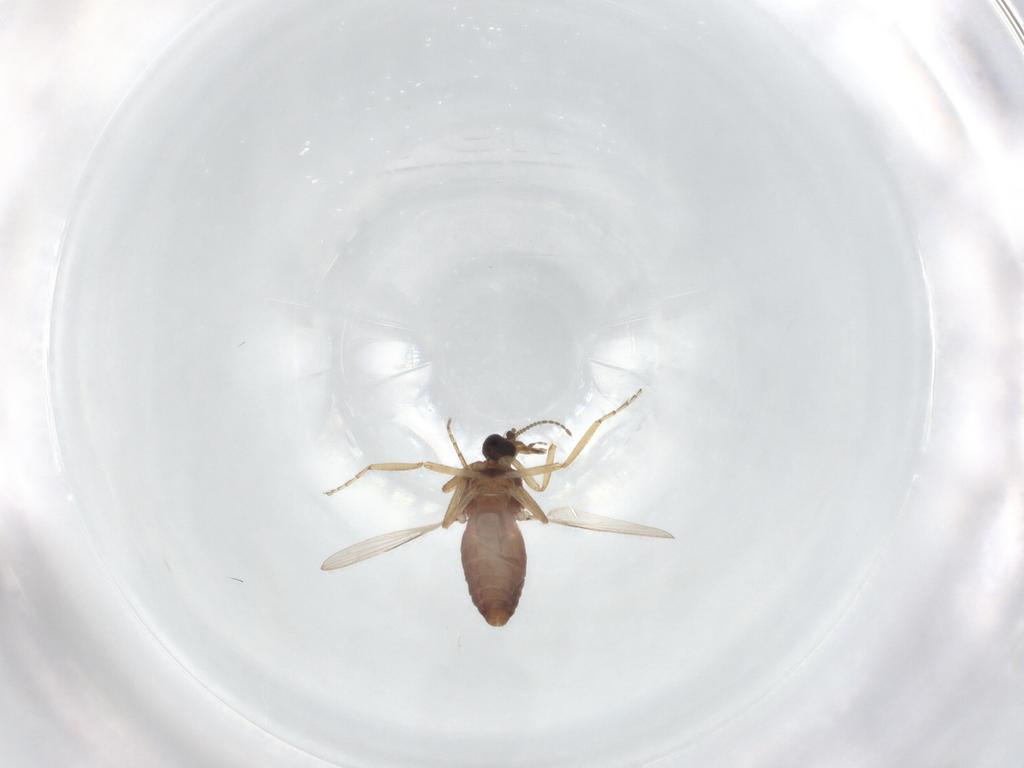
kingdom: Animalia
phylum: Arthropoda
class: Insecta
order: Diptera
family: Ceratopogonidae
